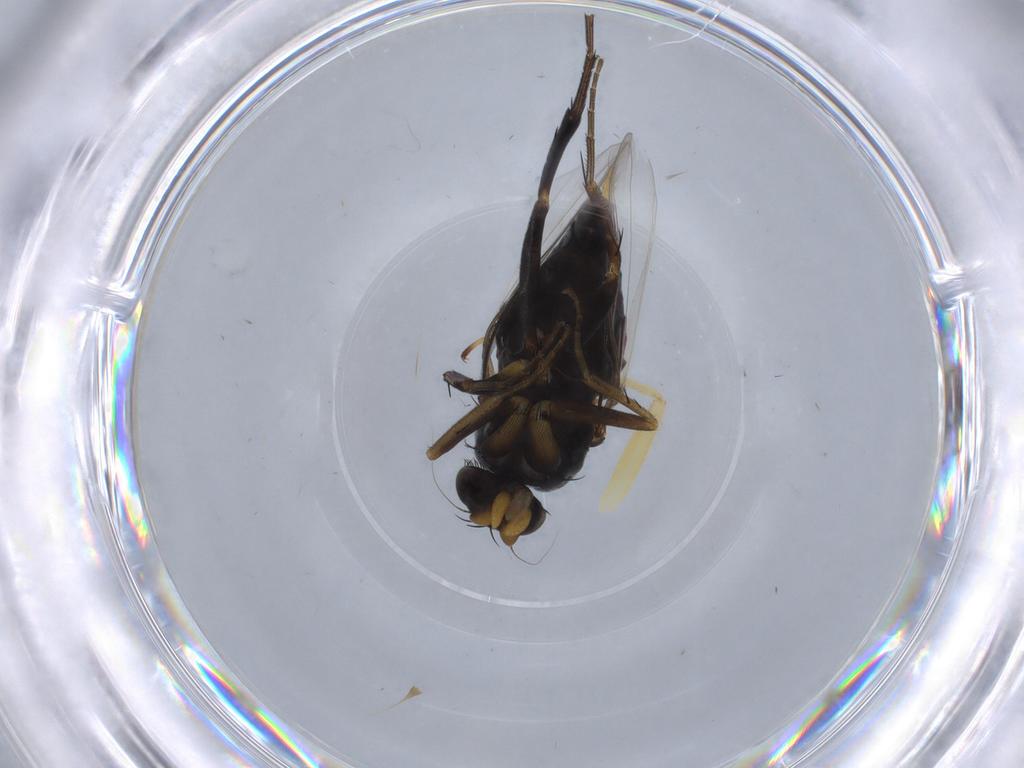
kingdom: Animalia
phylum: Arthropoda
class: Insecta
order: Diptera
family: Phoridae
